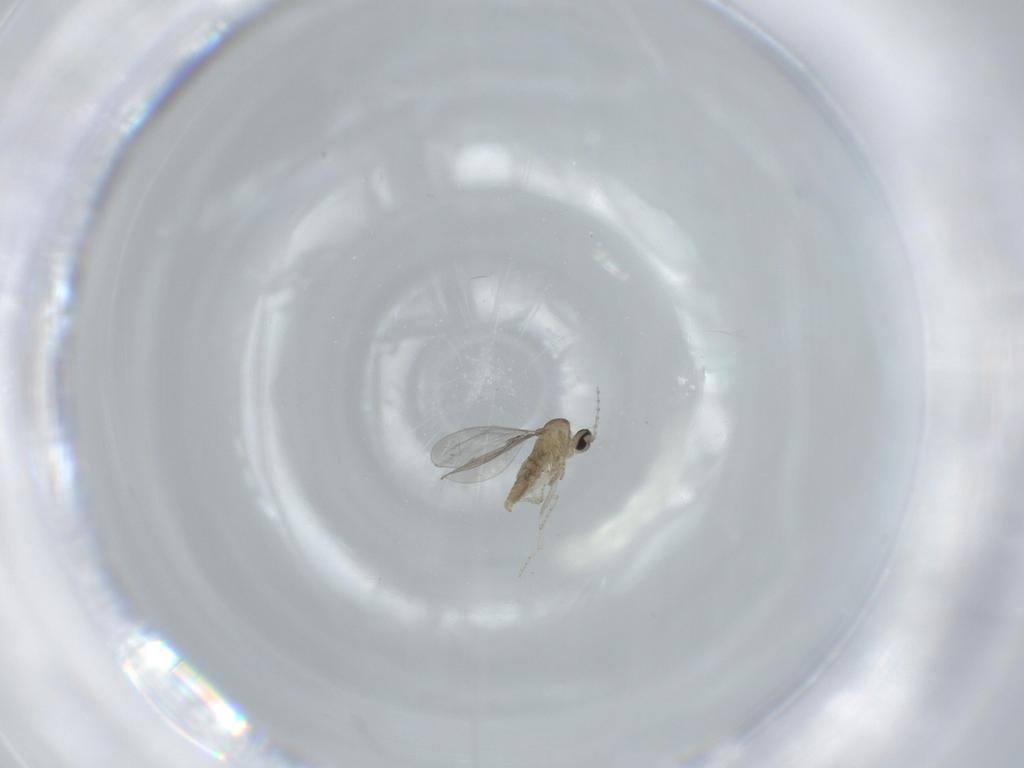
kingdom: Animalia
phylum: Arthropoda
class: Insecta
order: Diptera
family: Cecidomyiidae
